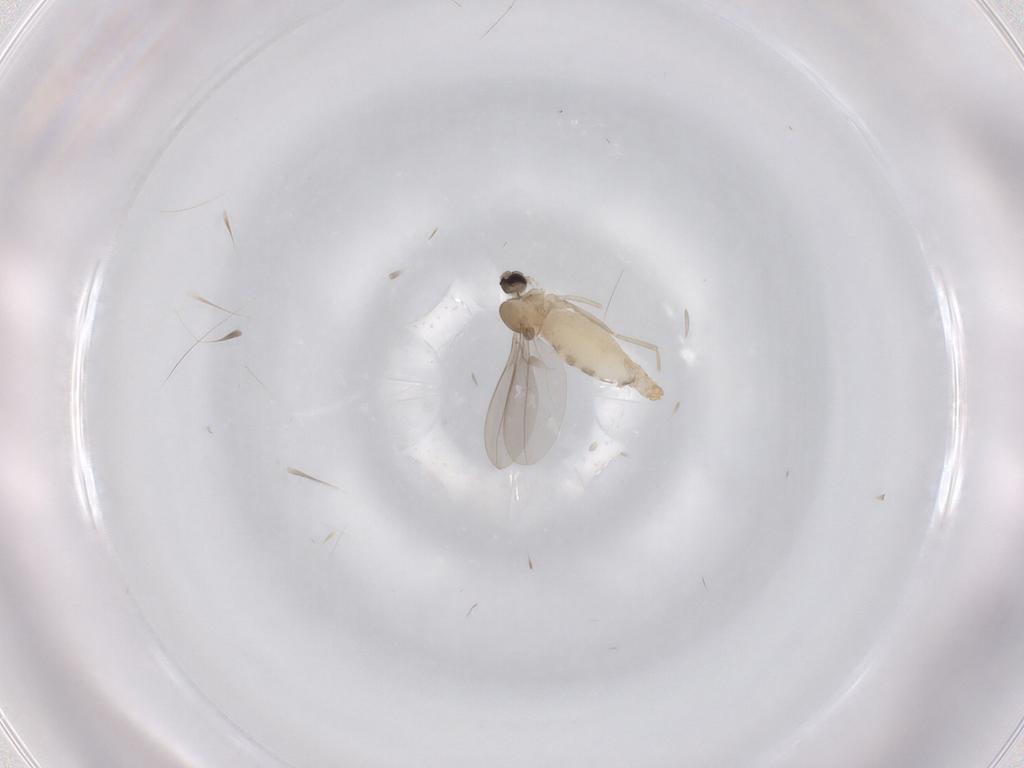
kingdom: Animalia
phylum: Arthropoda
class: Insecta
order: Diptera
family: Cecidomyiidae
